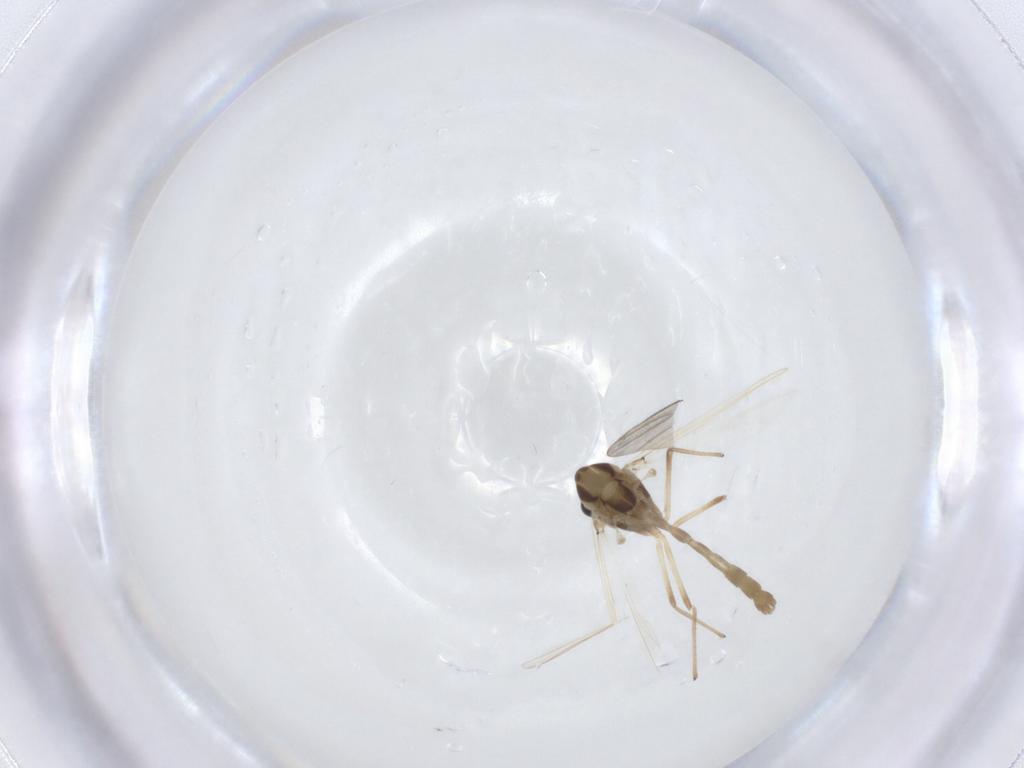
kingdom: Animalia
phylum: Arthropoda
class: Insecta
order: Diptera
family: Chironomidae
